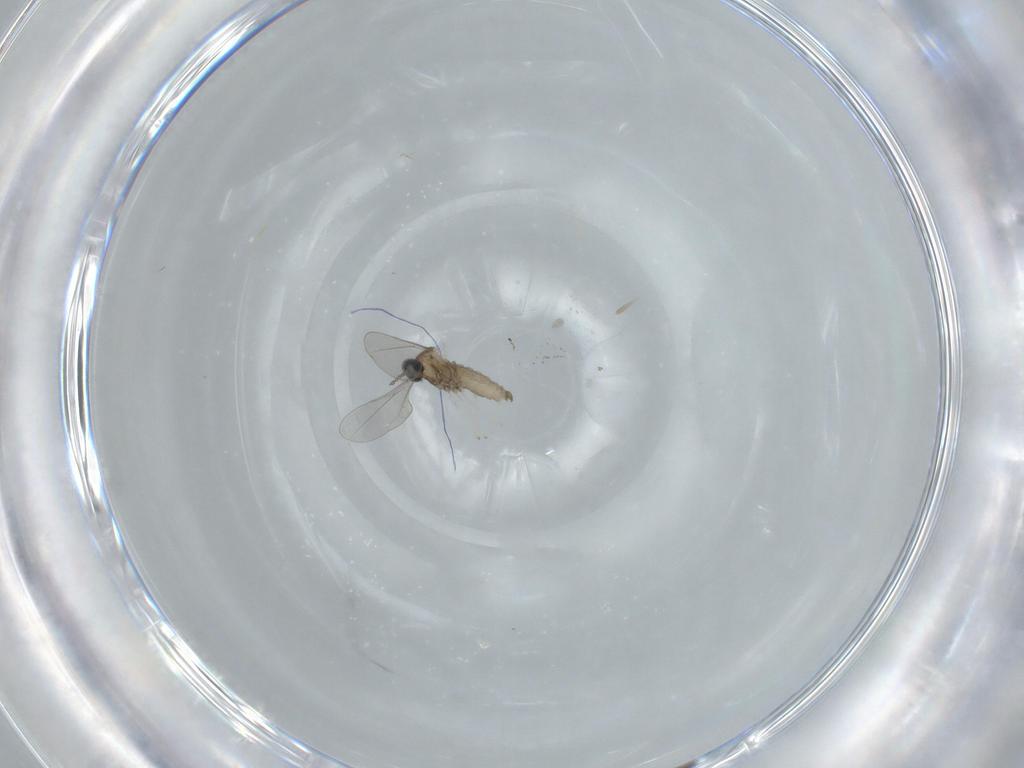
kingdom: Animalia
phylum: Arthropoda
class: Insecta
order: Diptera
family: Cecidomyiidae
